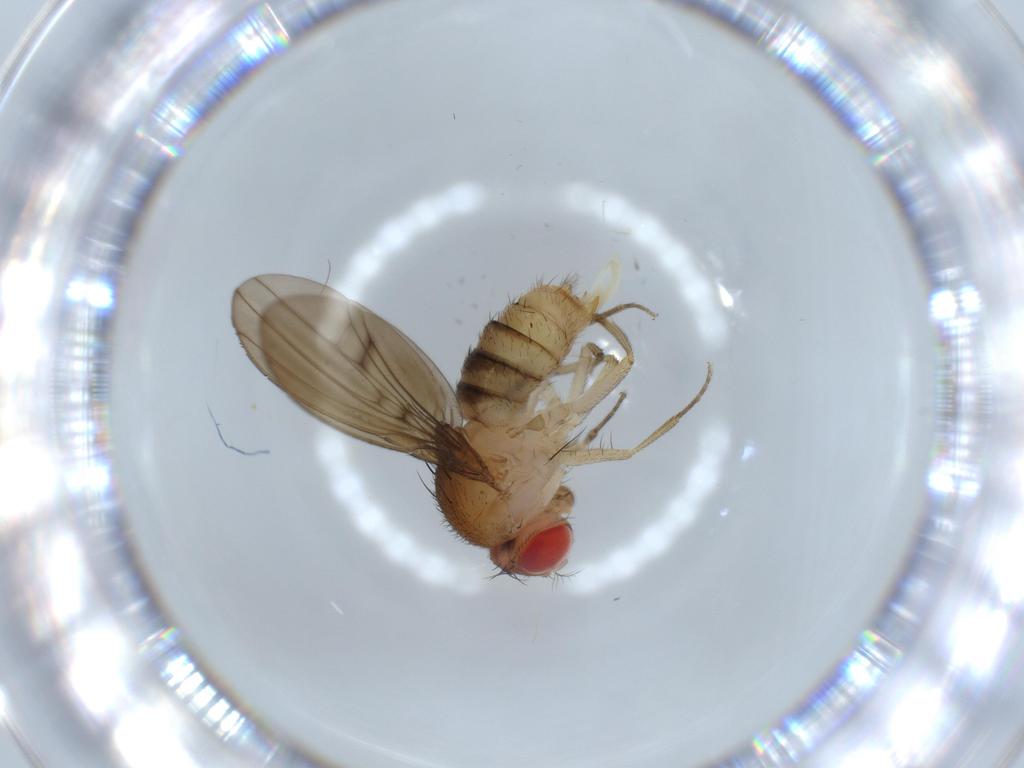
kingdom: Animalia
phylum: Arthropoda
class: Insecta
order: Diptera
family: Drosophilidae
